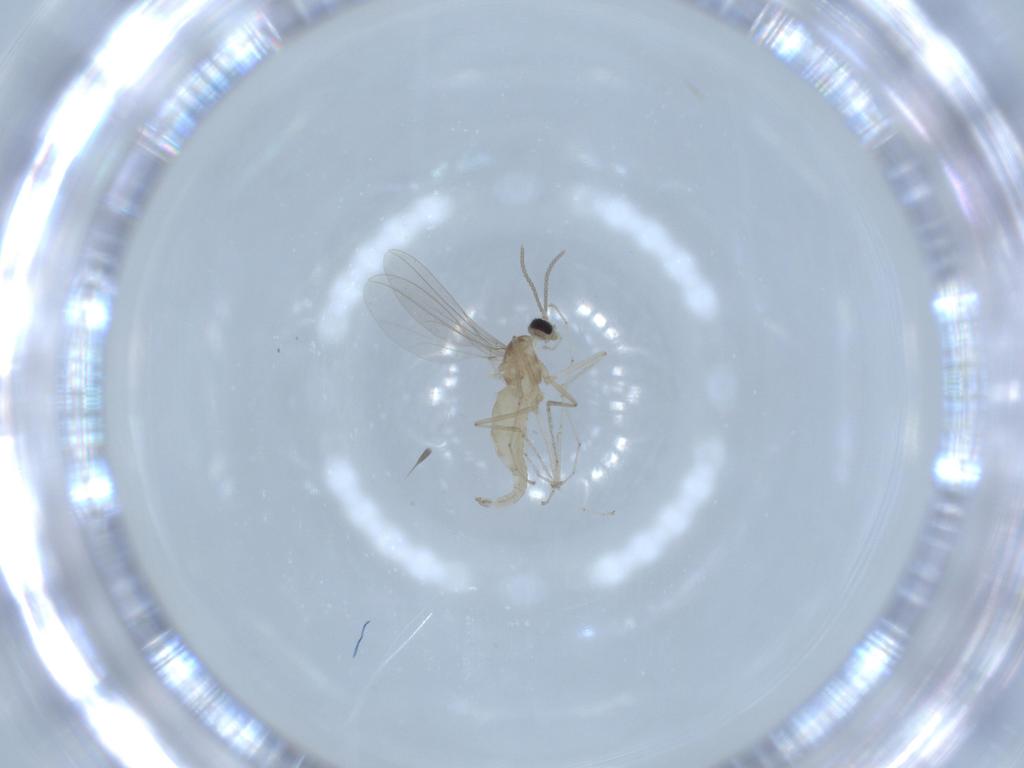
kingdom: Animalia
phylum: Arthropoda
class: Insecta
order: Diptera
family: Cecidomyiidae
